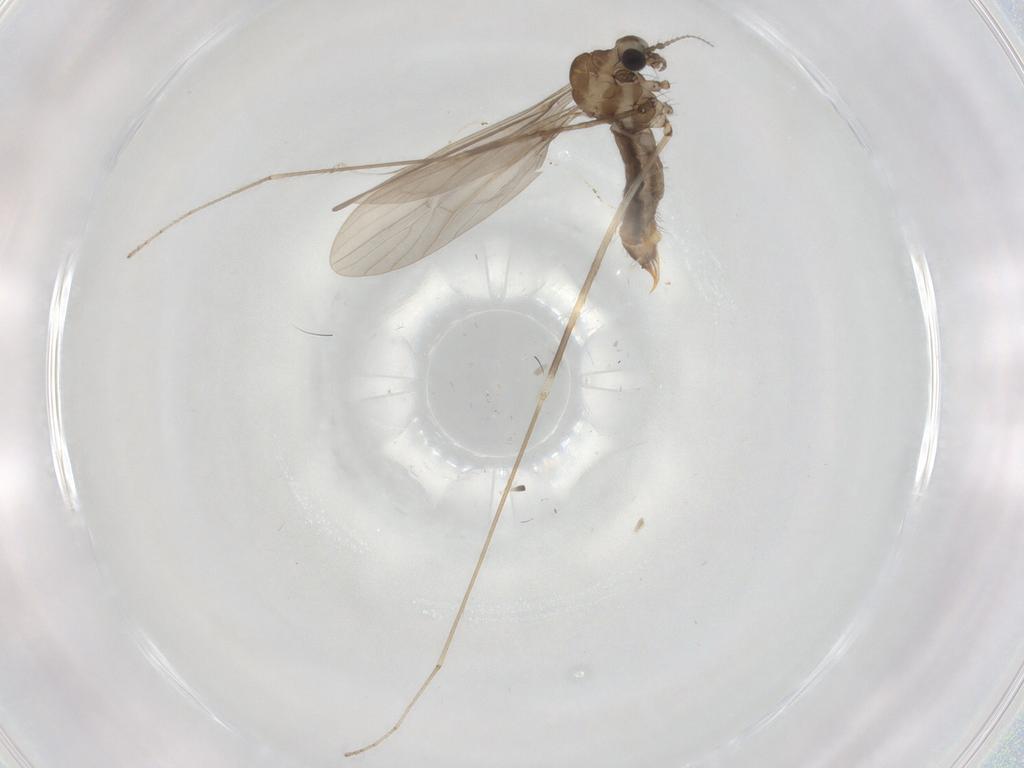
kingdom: Animalia
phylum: Arthropoda
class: Insecta
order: Diptera
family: Limoniidae
